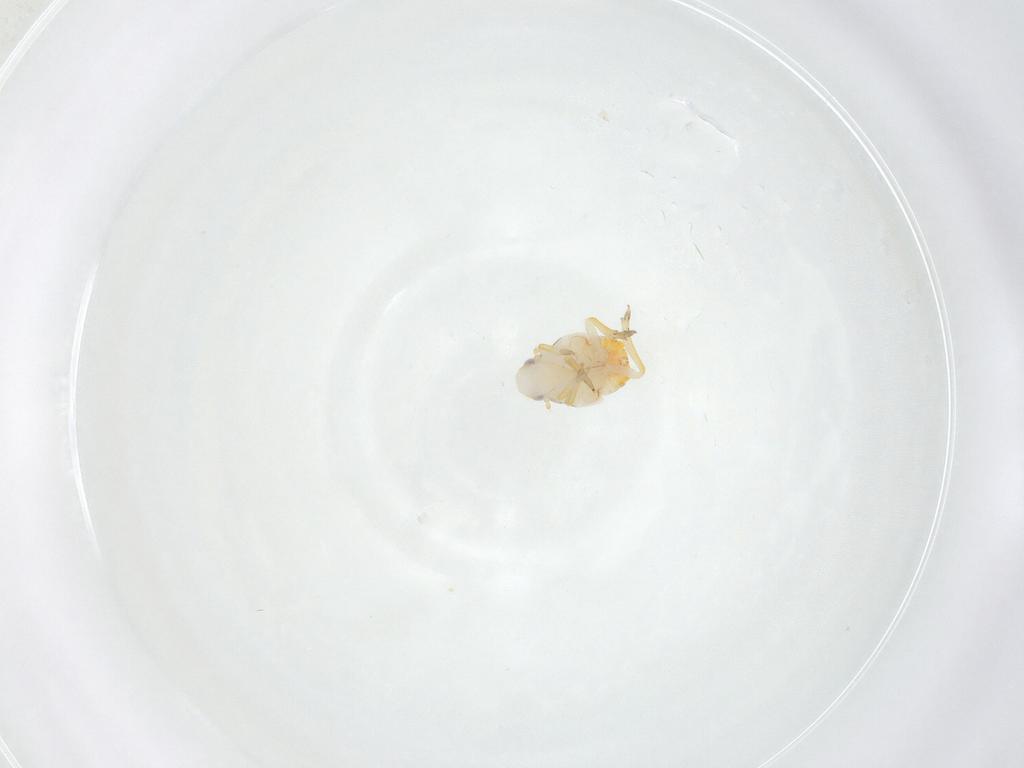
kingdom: Animalia
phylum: Arthropoda
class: Insecta
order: Hemiptera
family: Flatidae
